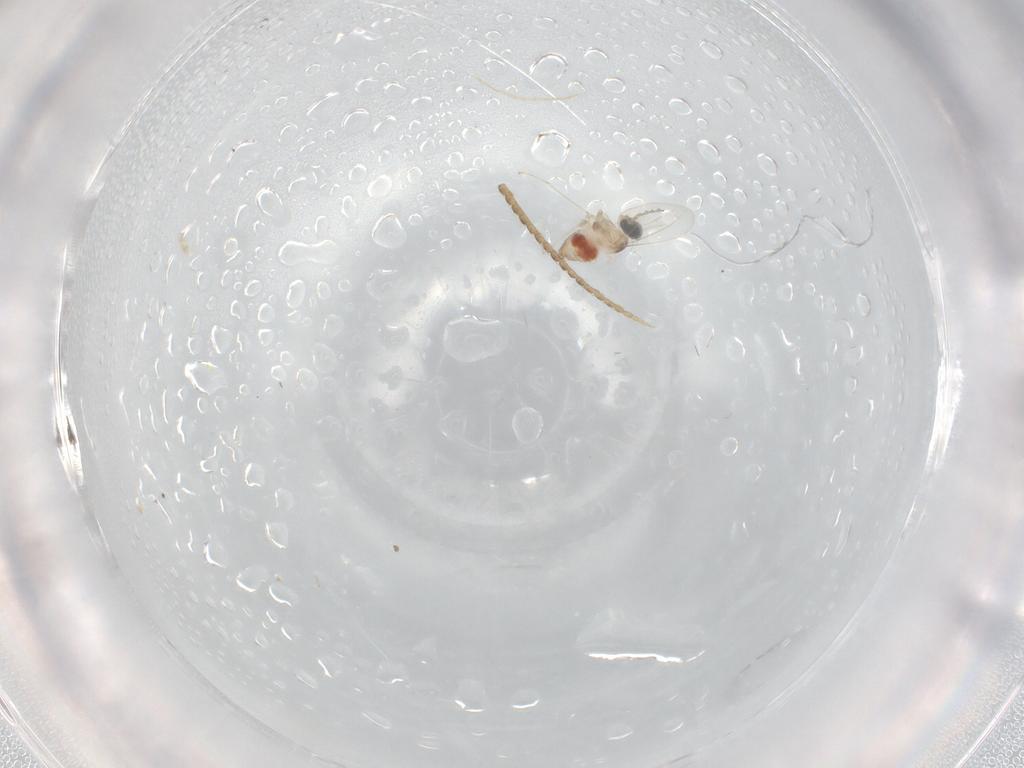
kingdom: Animalia
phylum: Arthropoda
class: Insecta
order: Diptera
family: Cecidomyiidae
